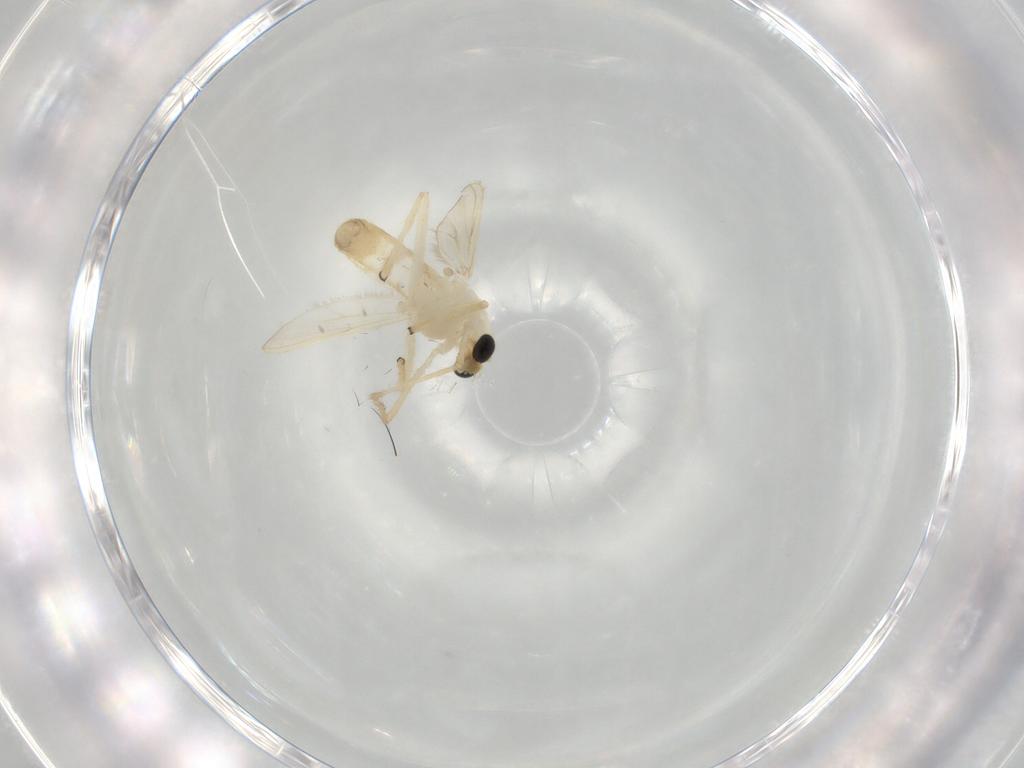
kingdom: Animalia
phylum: Arthropoda
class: Insecta
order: Diptera
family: Chironomidae
